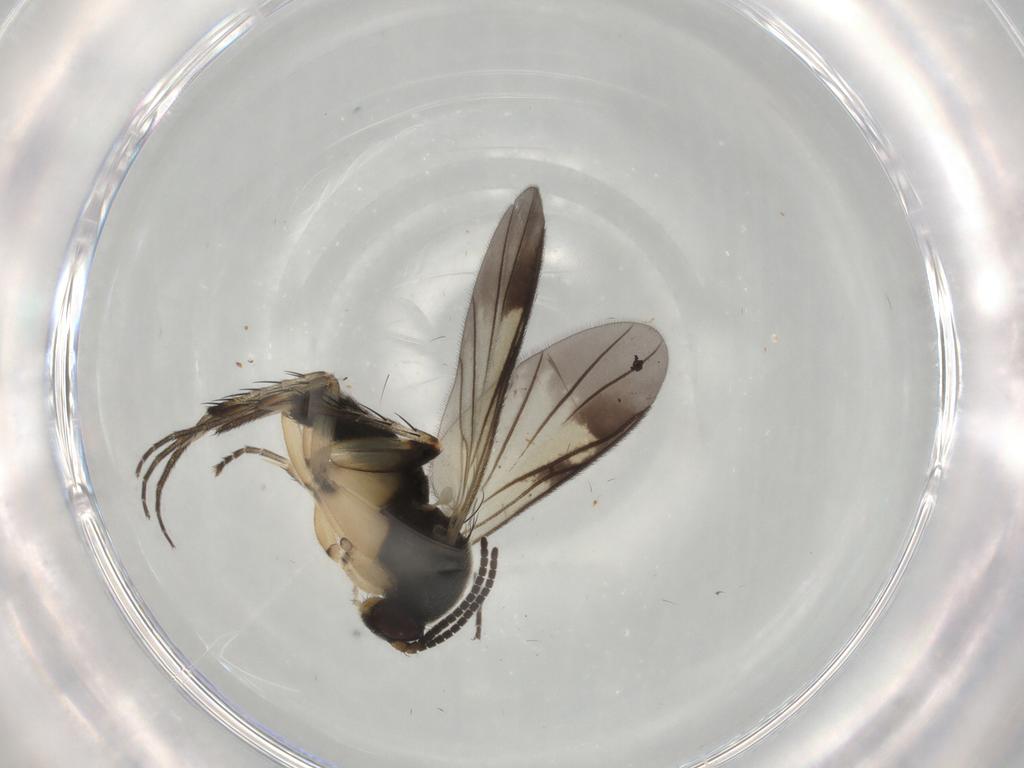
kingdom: Animalia
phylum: Arthropoda
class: Insecta
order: Diptera
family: Mycetophilidae
